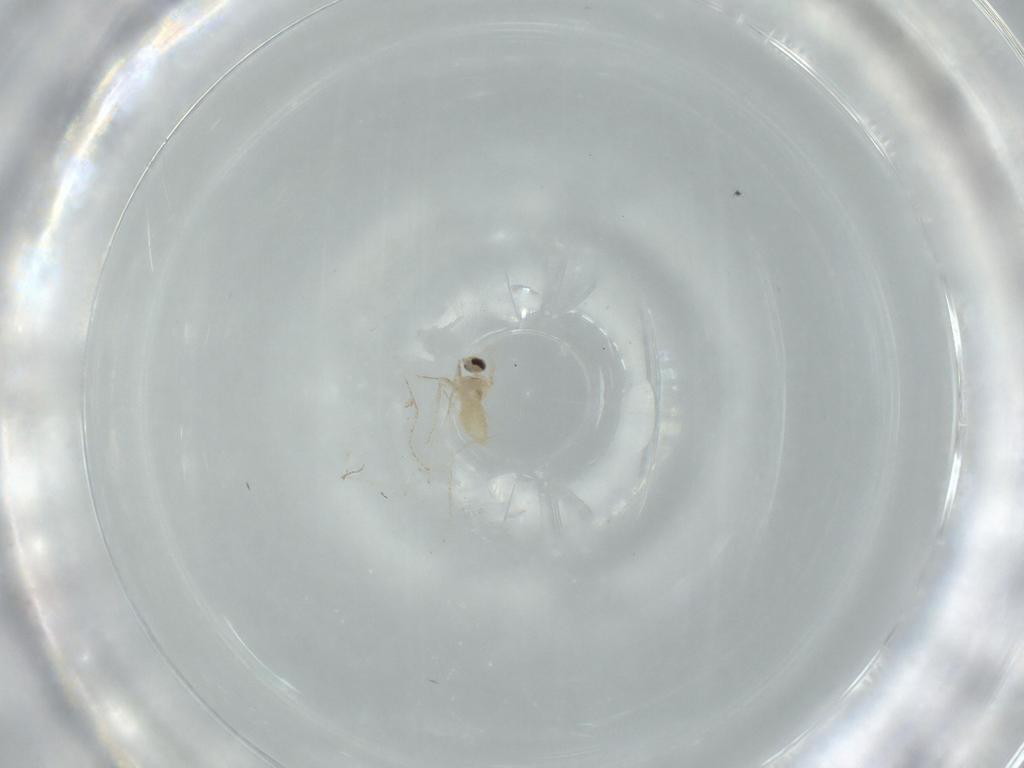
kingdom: Animalia
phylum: Arthropoda
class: Insecta
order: Diptera
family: Cecidomyiidae
